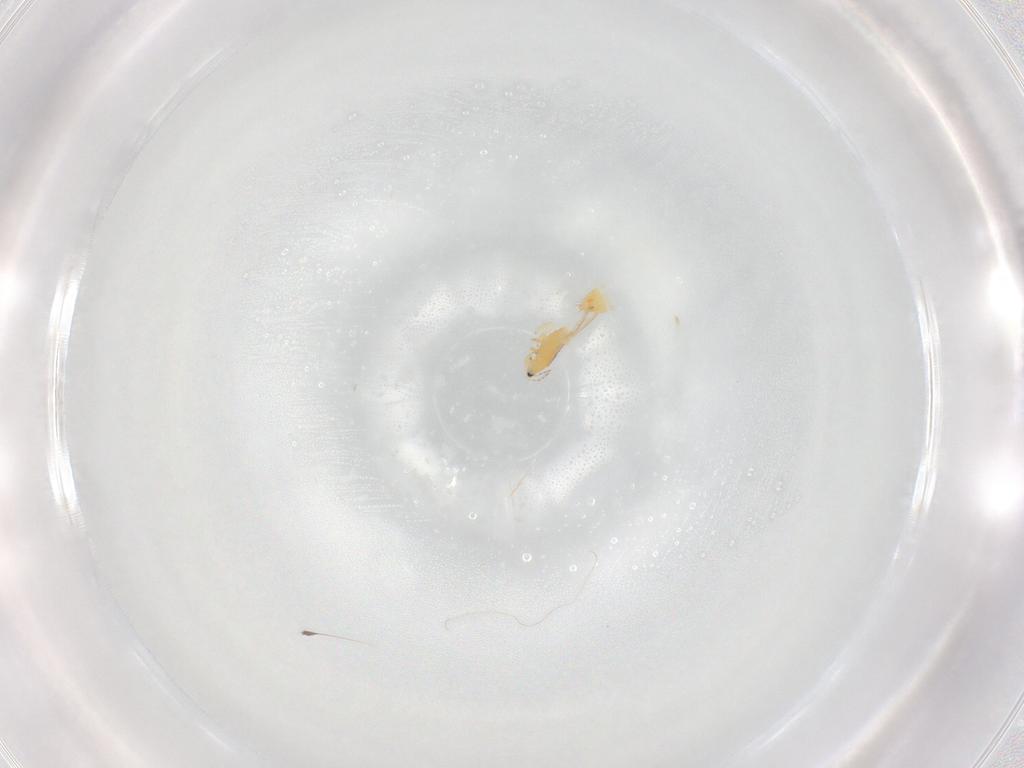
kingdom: Animalia
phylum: Arthropoda
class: Insecta
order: Thysanoptera
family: Thripidae
